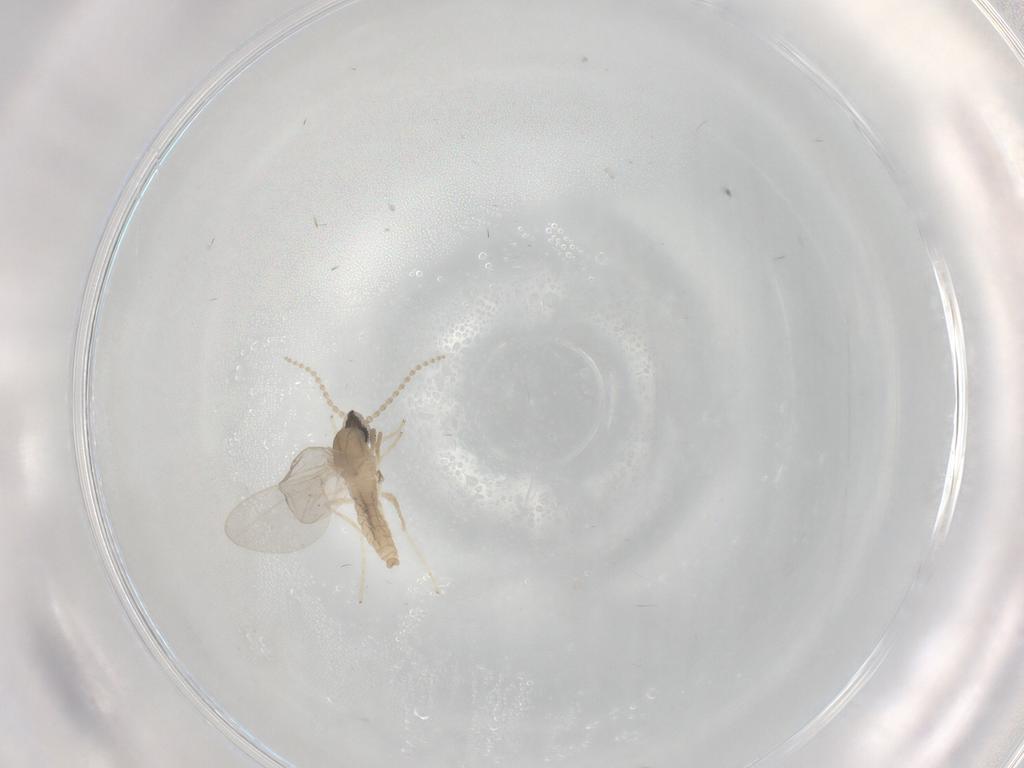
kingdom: Animalia
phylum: Arthropoda
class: Insecta
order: Diptera
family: Cecidomyiidae
